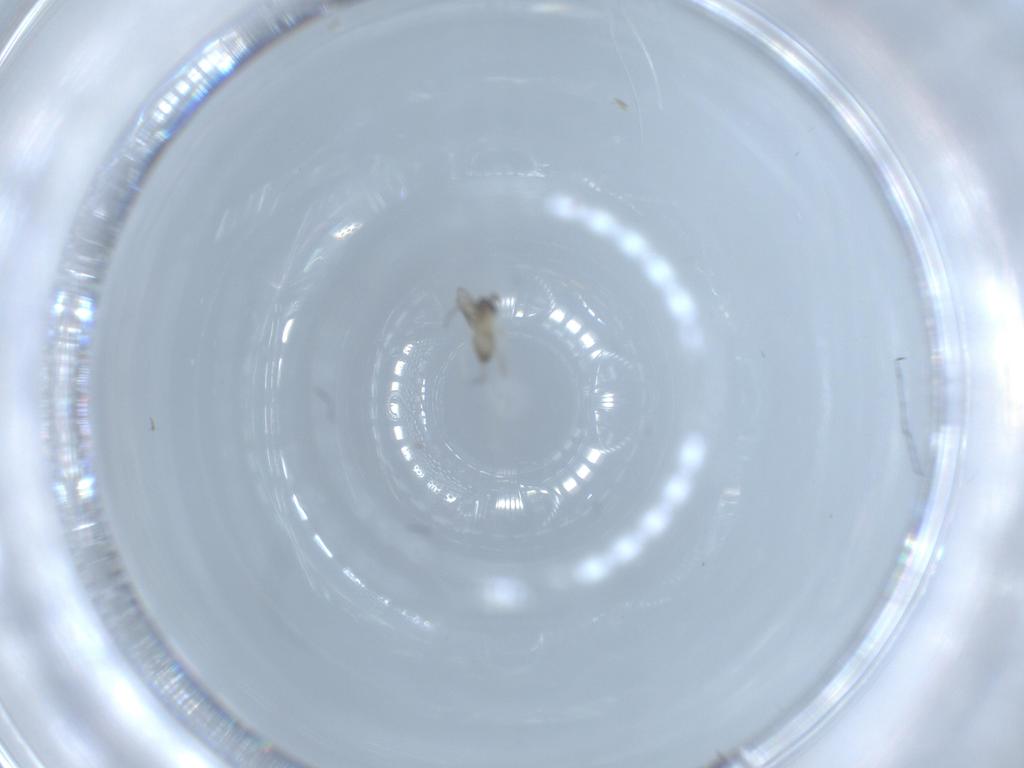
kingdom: Animalia
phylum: Arthropoda
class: Insecta
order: Diptera
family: Cecidomyiidae
